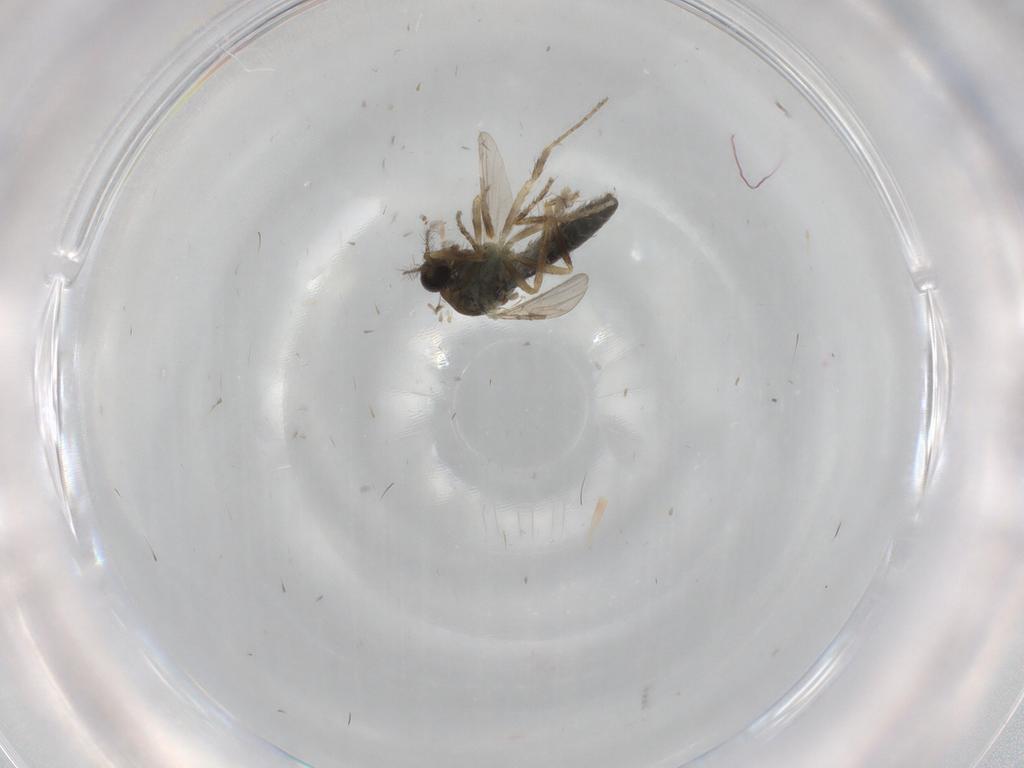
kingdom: Animalia
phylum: Arthropoda
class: Insecta
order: Diptera
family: Ceratopogonidae
